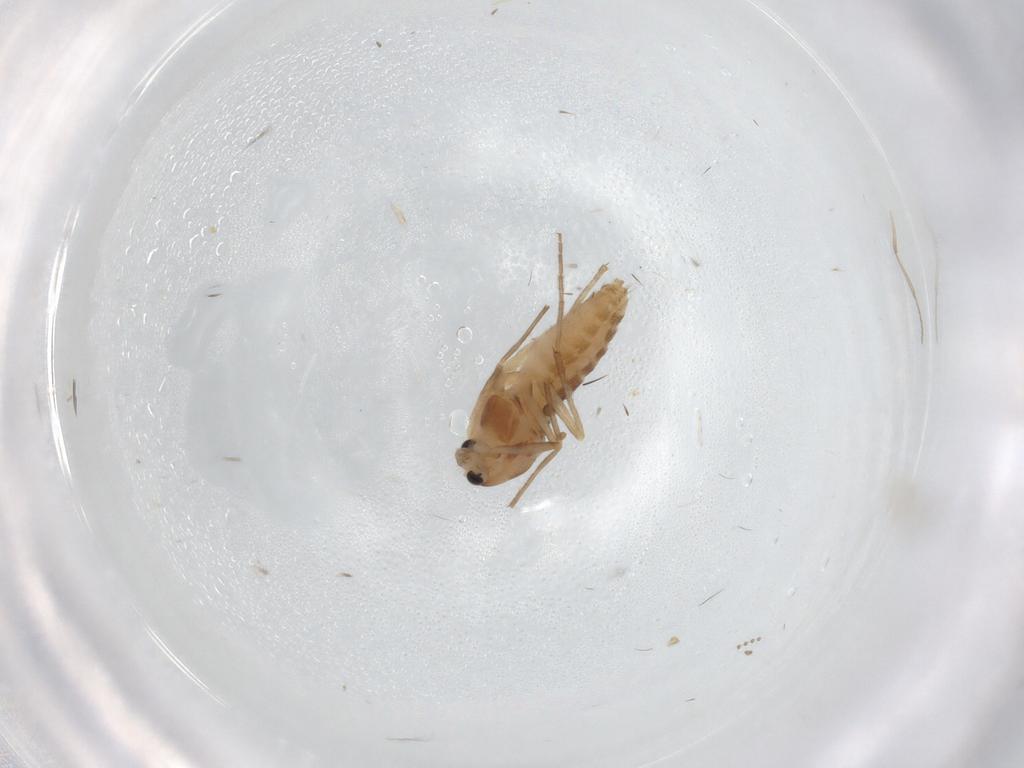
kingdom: Animalia
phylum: Arthropoda
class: Insecta
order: Diptera
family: Chironomidae
